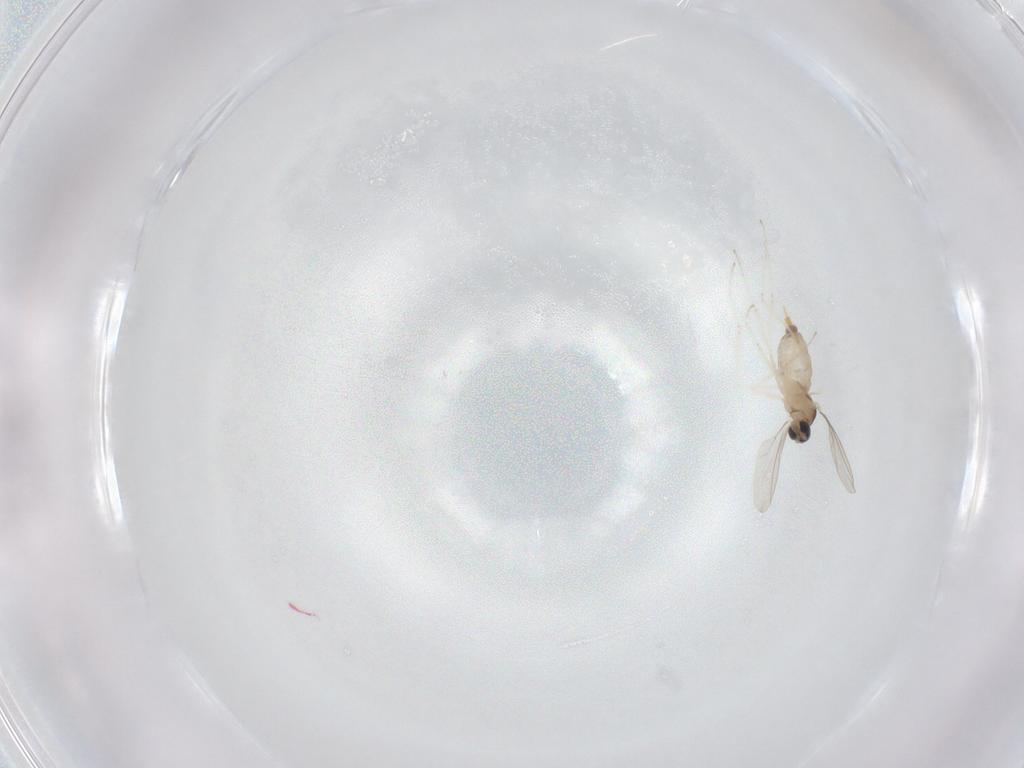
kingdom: Animalia
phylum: Arthropoda
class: Insecta
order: Diptera
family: Cecidomyiidae
